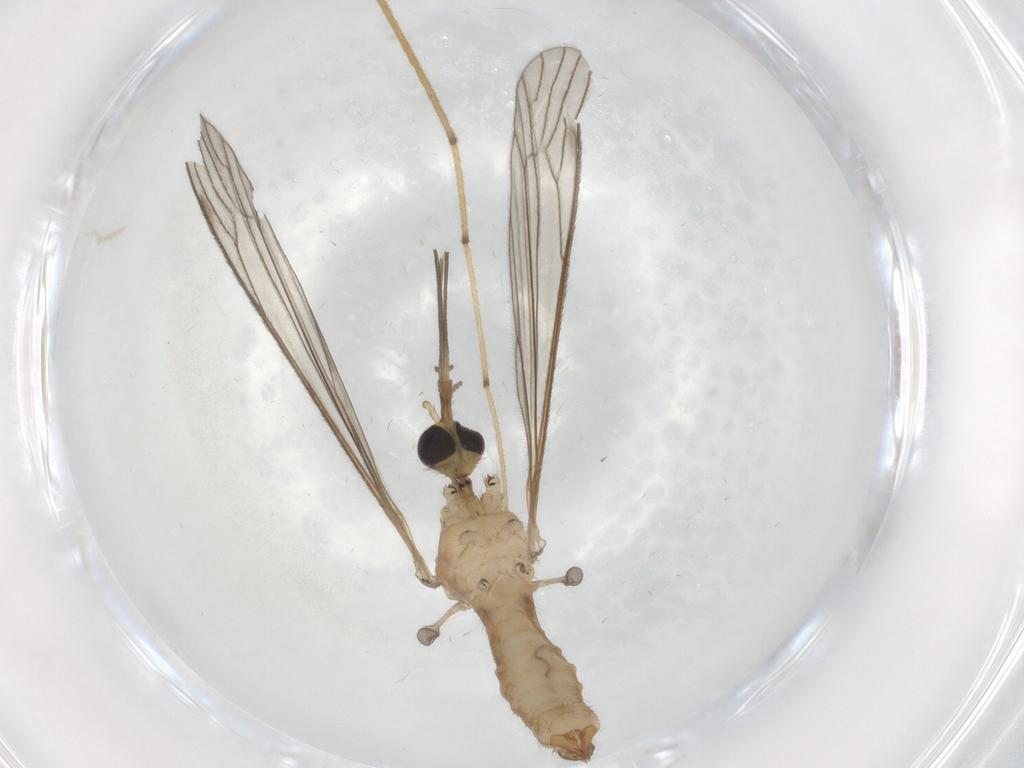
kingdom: Animalia
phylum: Arthropoda
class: Insecta
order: Diptera
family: Chironomidae
